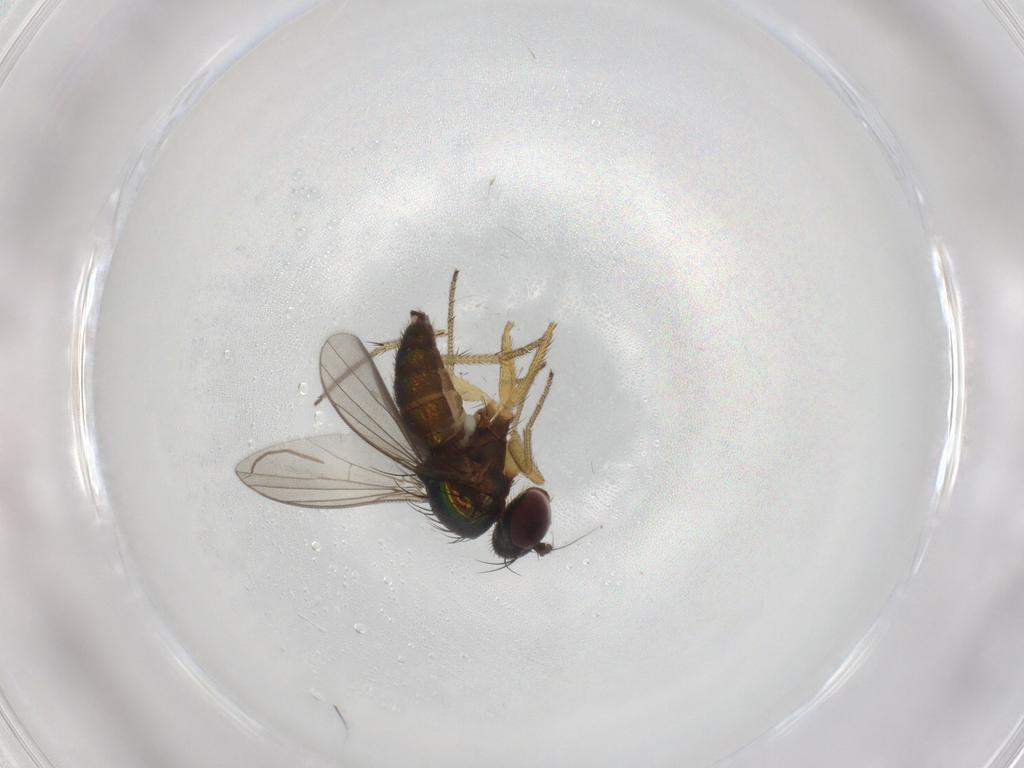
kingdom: Animalia
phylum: Arthropoda
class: Insecta
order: Diptera
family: Dolichopodidae
